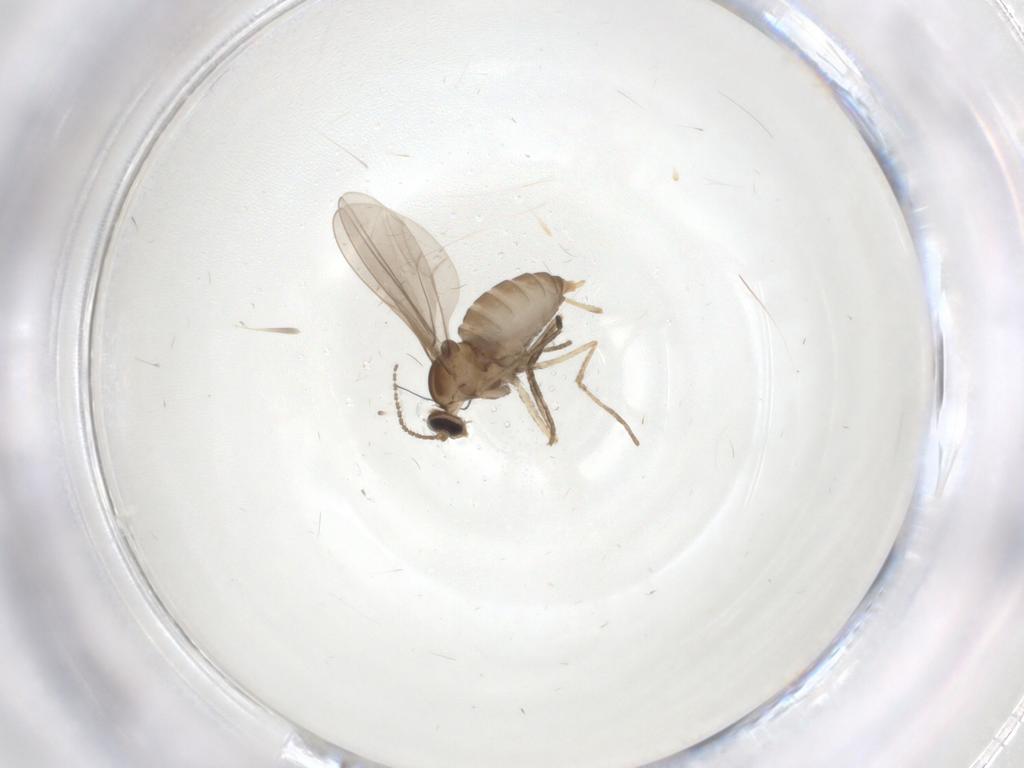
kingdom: Animalia
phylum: Arthropoda
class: Insecta
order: Diptera
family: Cecidomyiidae
